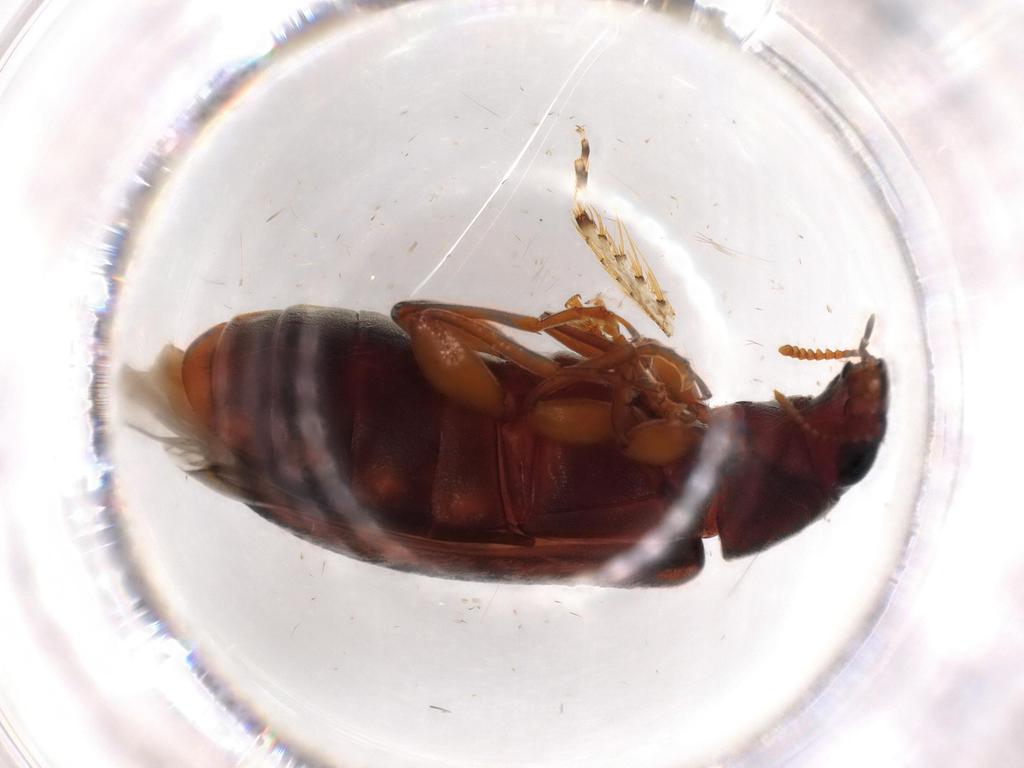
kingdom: Animalia
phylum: Arthropoda
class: Insecta
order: Coleoptera
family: Mycteridae
